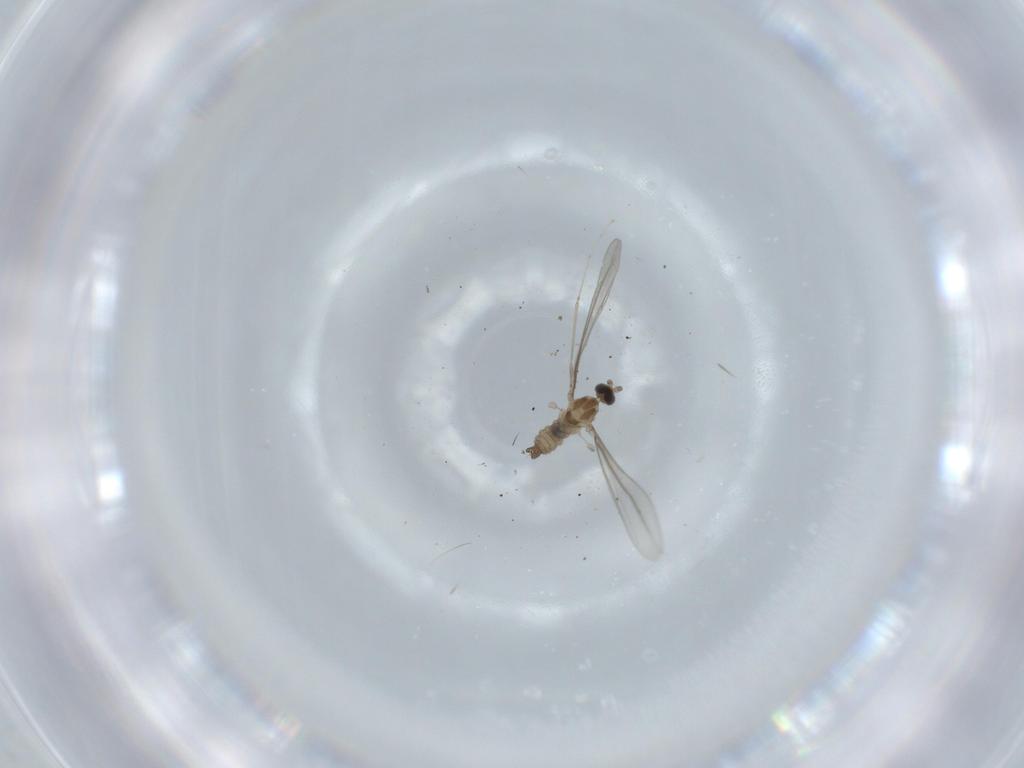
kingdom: Animalia
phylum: Arthropoda
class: Insecta
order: Diptera
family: Cecidomyiidae
